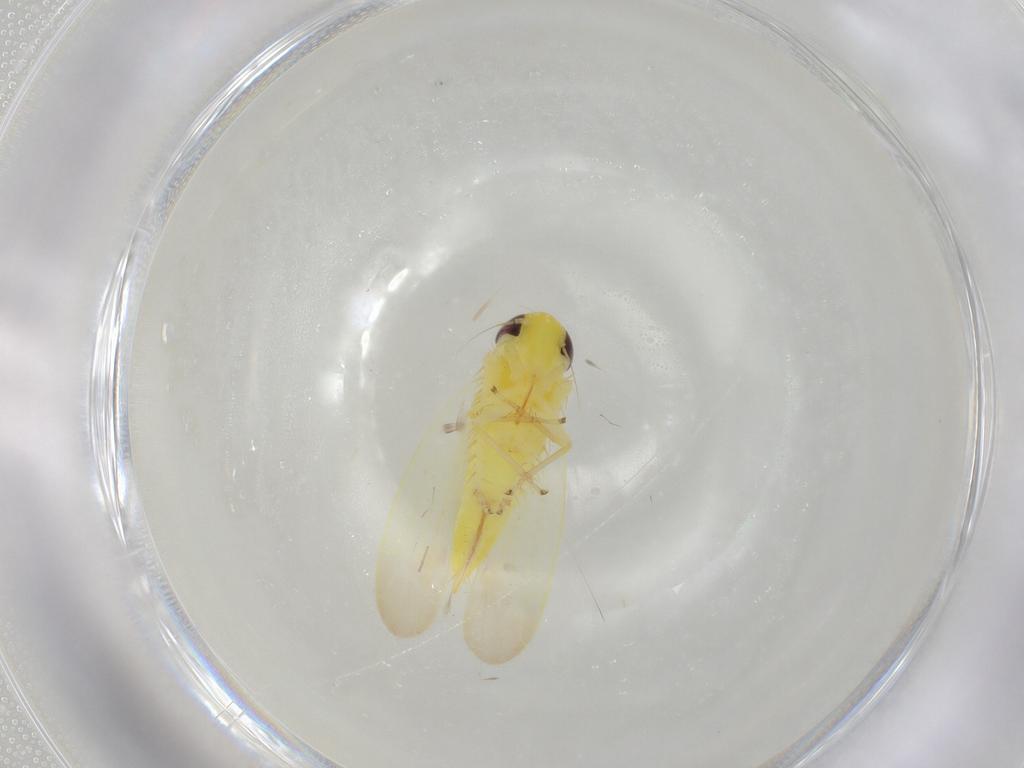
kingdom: Animalia
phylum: Arthropoda
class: Insecta
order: Hemiptera
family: Cicadellidae
